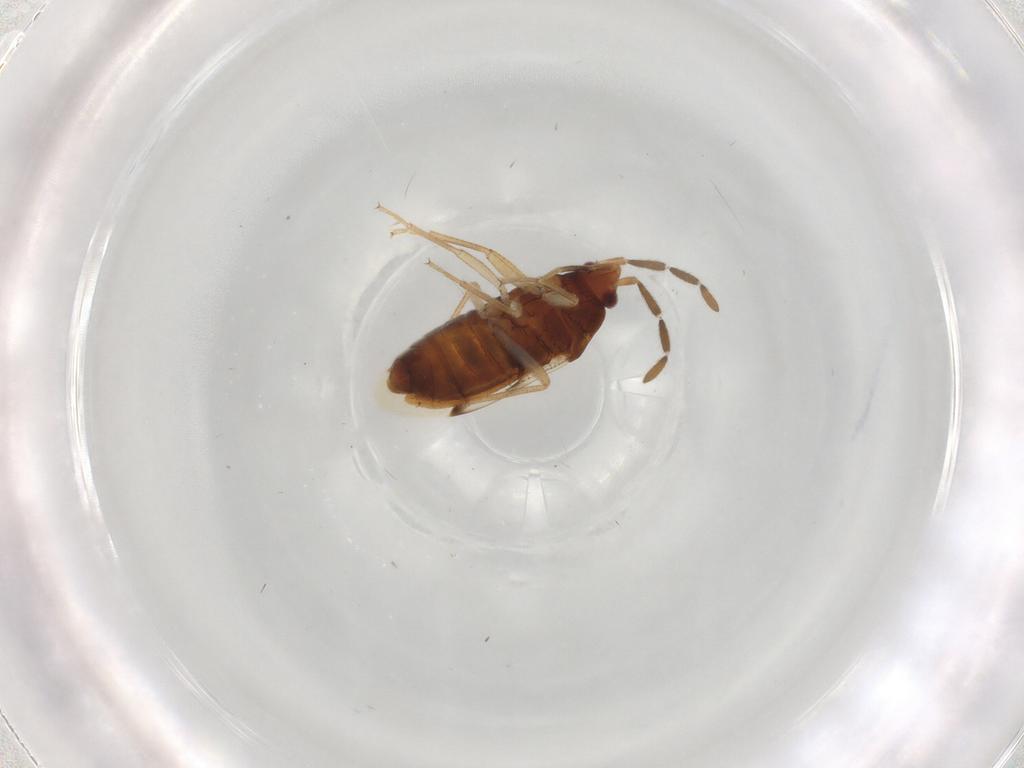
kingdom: Animalia
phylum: Arthropoda
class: Insecta
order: Hemiptera
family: Rhyparochromidae
